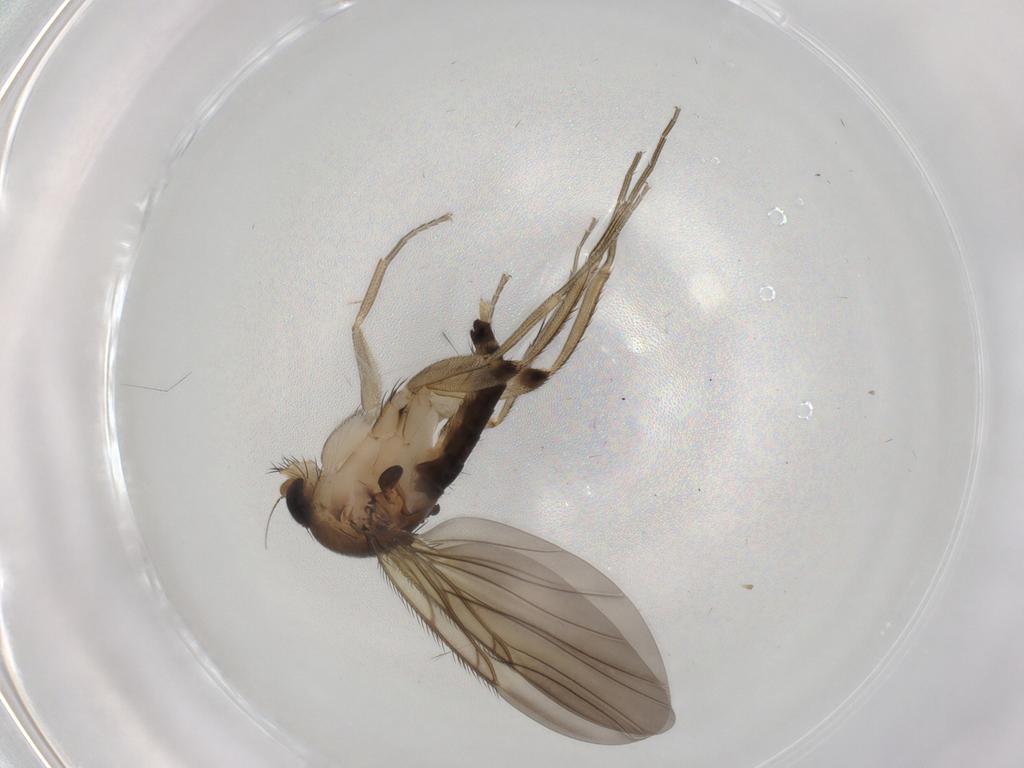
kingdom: Animalia
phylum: Arthropoda
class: Insecta
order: Diptera
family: Phoridae
